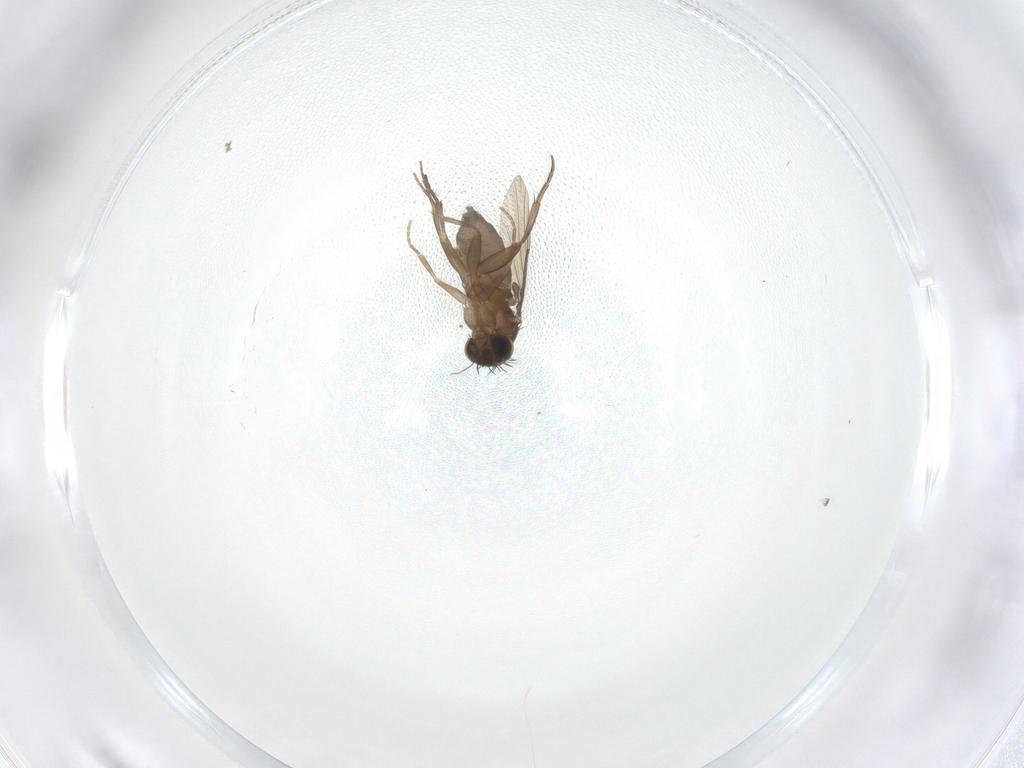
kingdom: Animalia
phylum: Arthropoda
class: Insecta
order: Diptera
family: Phoridae
